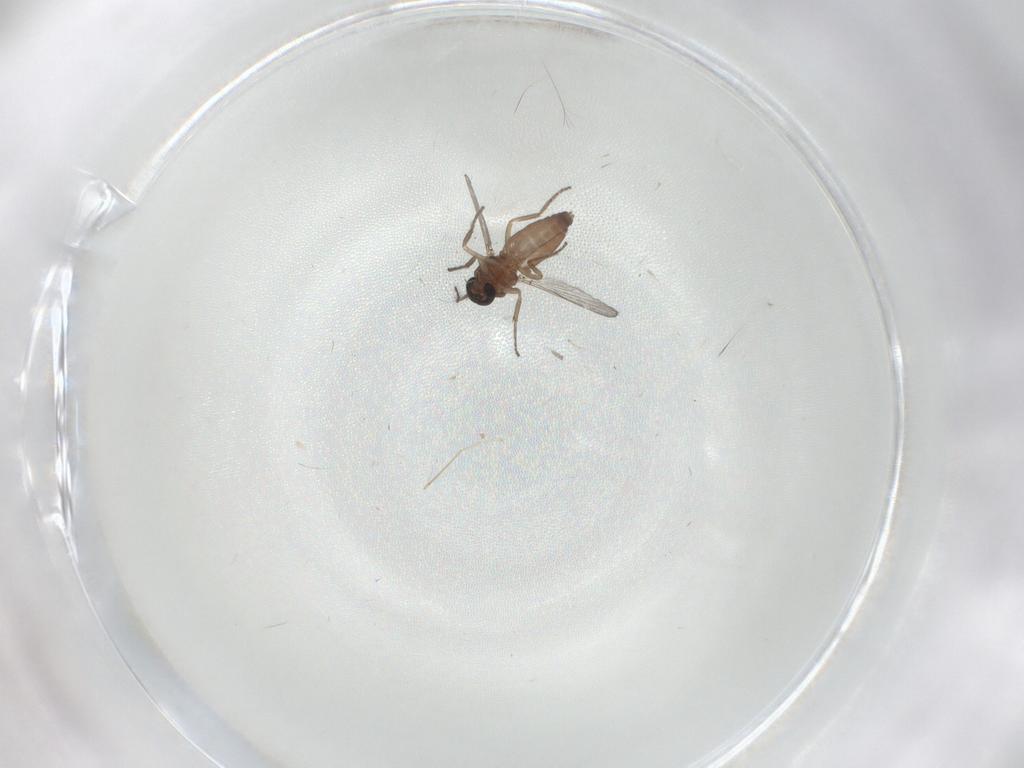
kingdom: Animalia
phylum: Arthropoda
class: Insecta
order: Diptera
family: Ceratopogonidae
